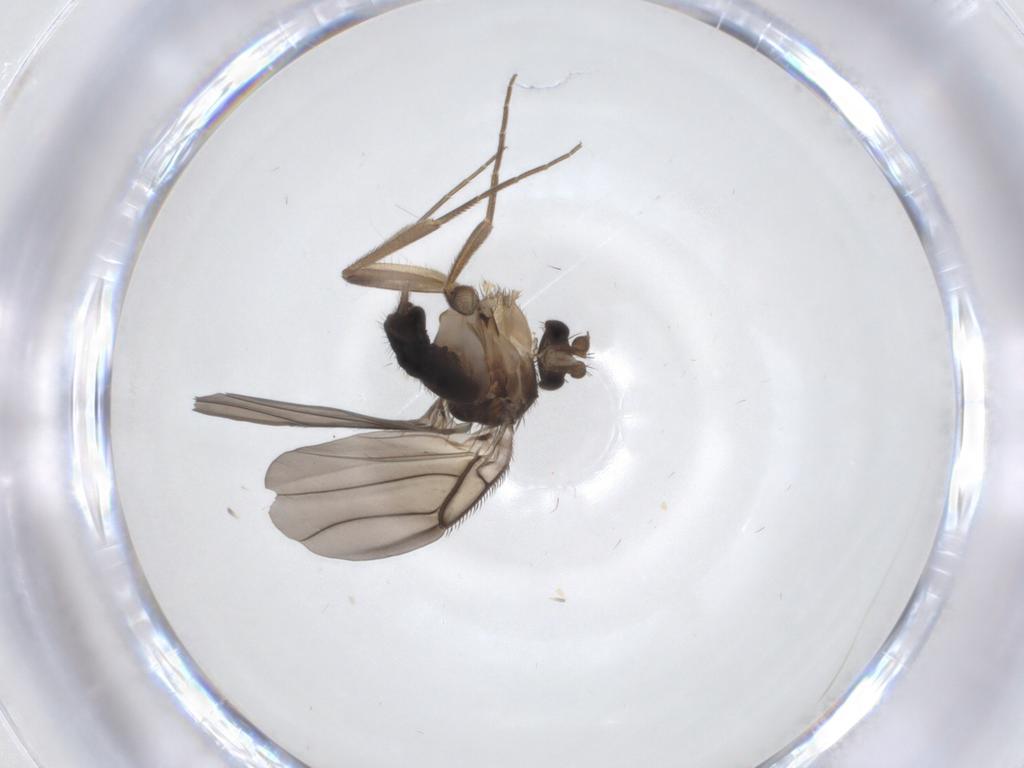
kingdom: Animalia
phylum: Arthropoda
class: Insecta
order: Diptera
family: Phoridae
